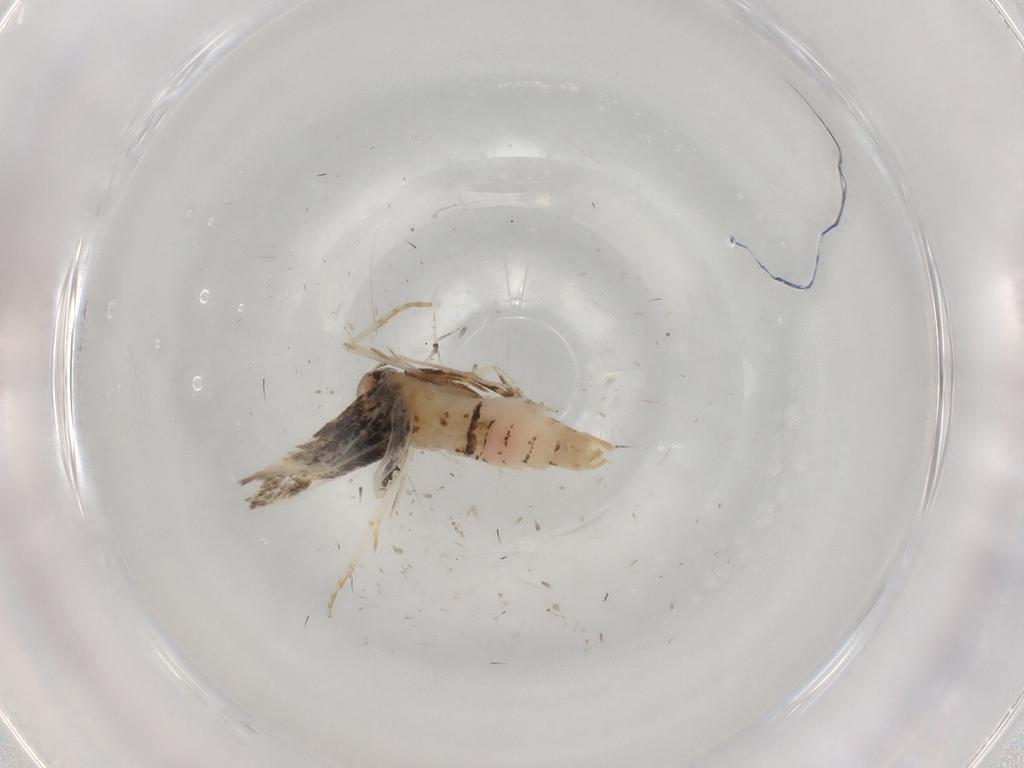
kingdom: Animalia
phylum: Arthropoda
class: Insecta
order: Lepidoptera
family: Cosmopterigidae
